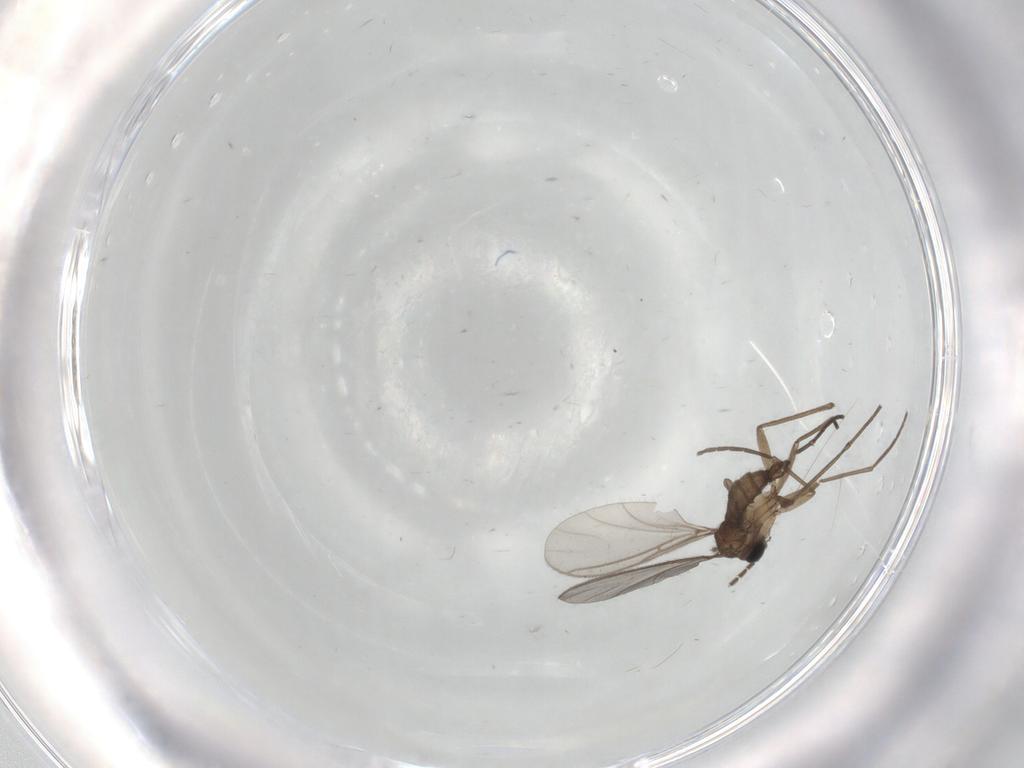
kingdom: Animalia
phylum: Arthropoda
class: Insecta
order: Diptera
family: Sciaridae
